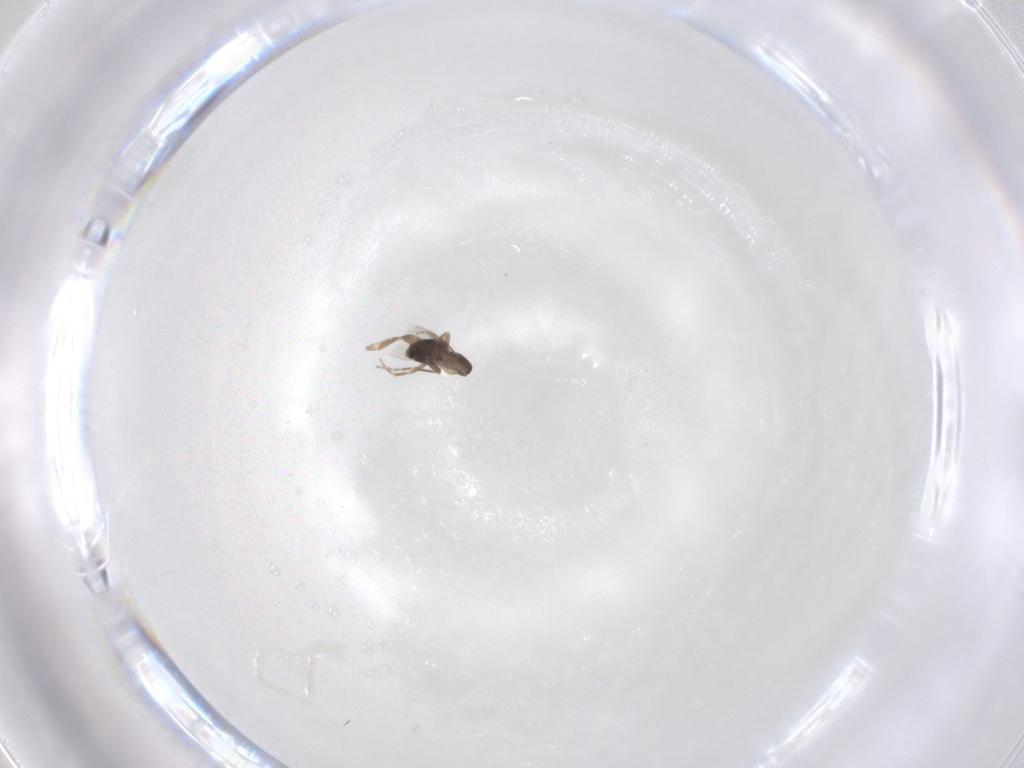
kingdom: Animalia
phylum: Arthropoda
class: Insecta
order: Diptera
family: Phoridae
